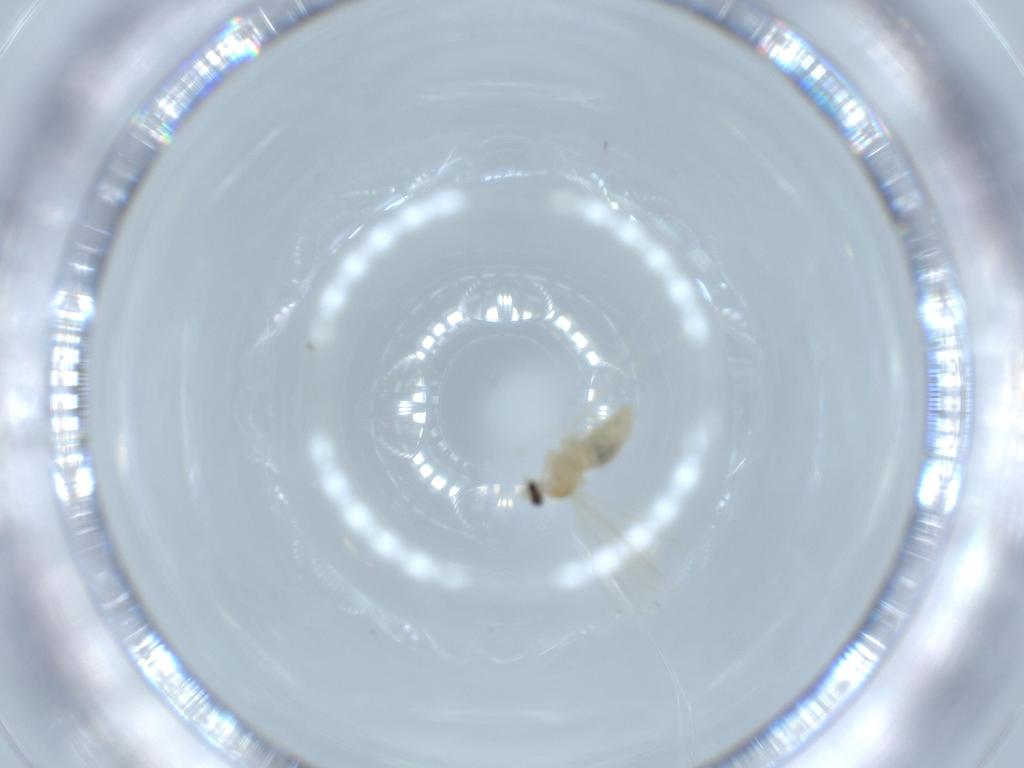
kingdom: Animalia
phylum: Arthropoda
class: Insecta
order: Diptera
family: Cecidomyiidae
